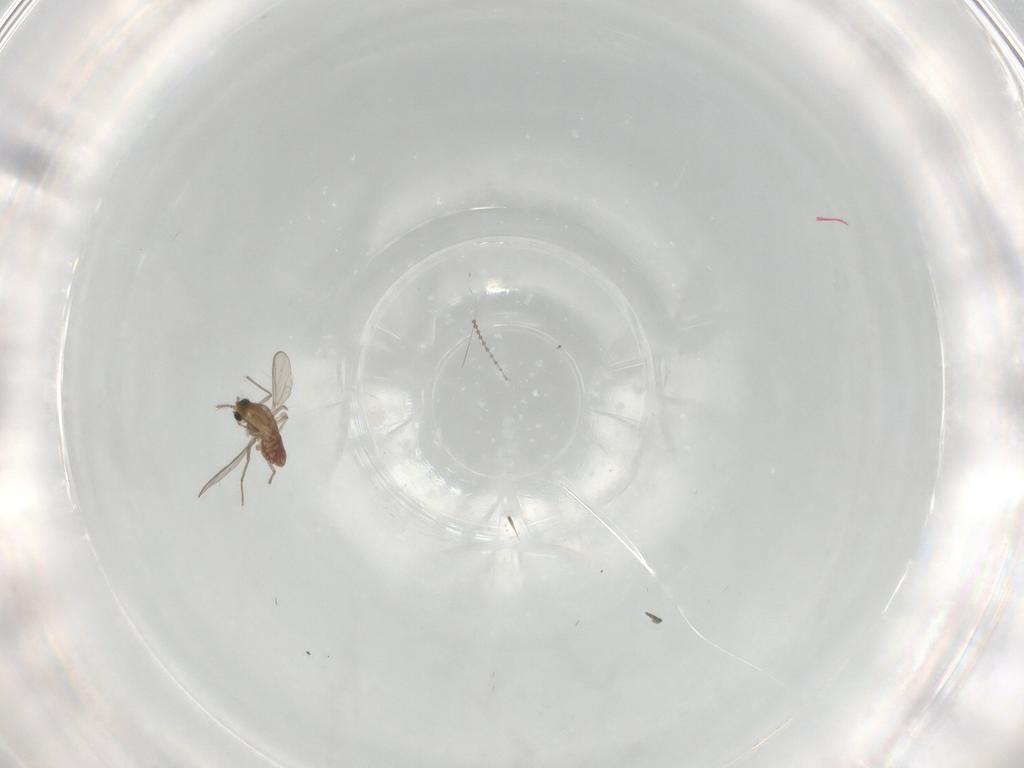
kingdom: Animalia
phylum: Arthropoda
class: Insecta
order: Diptera
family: Chironomidae
